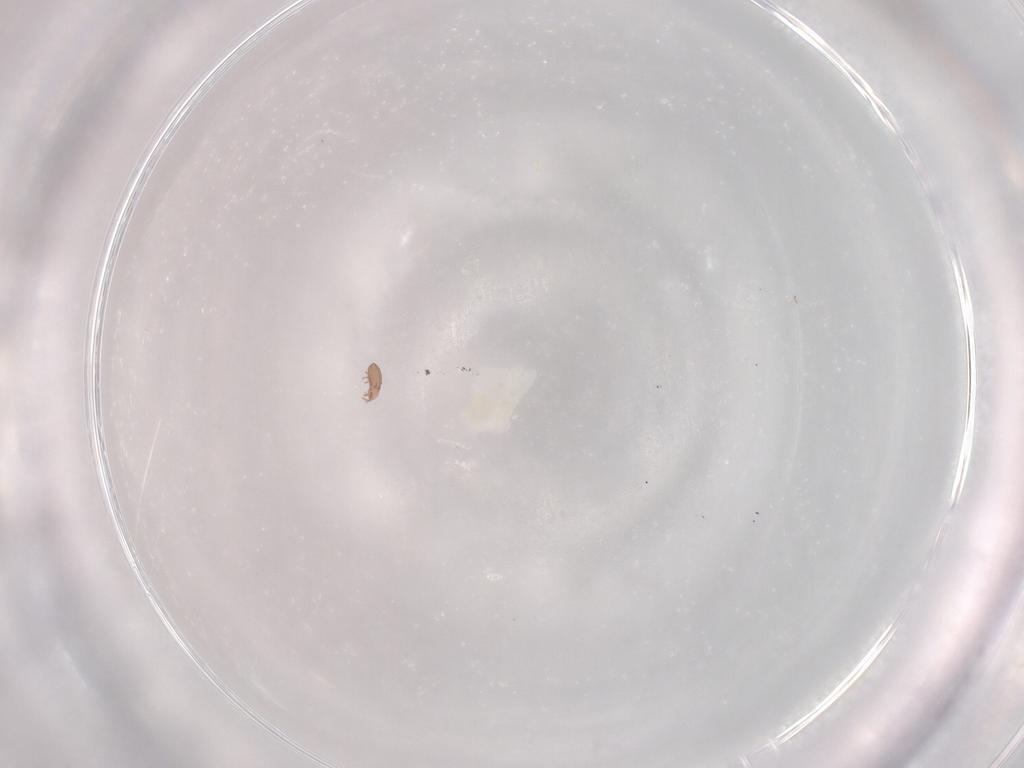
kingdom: Animalia
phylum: Arthropoda
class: Arachnida
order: Sarcoptiformes
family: Eremaeidae
